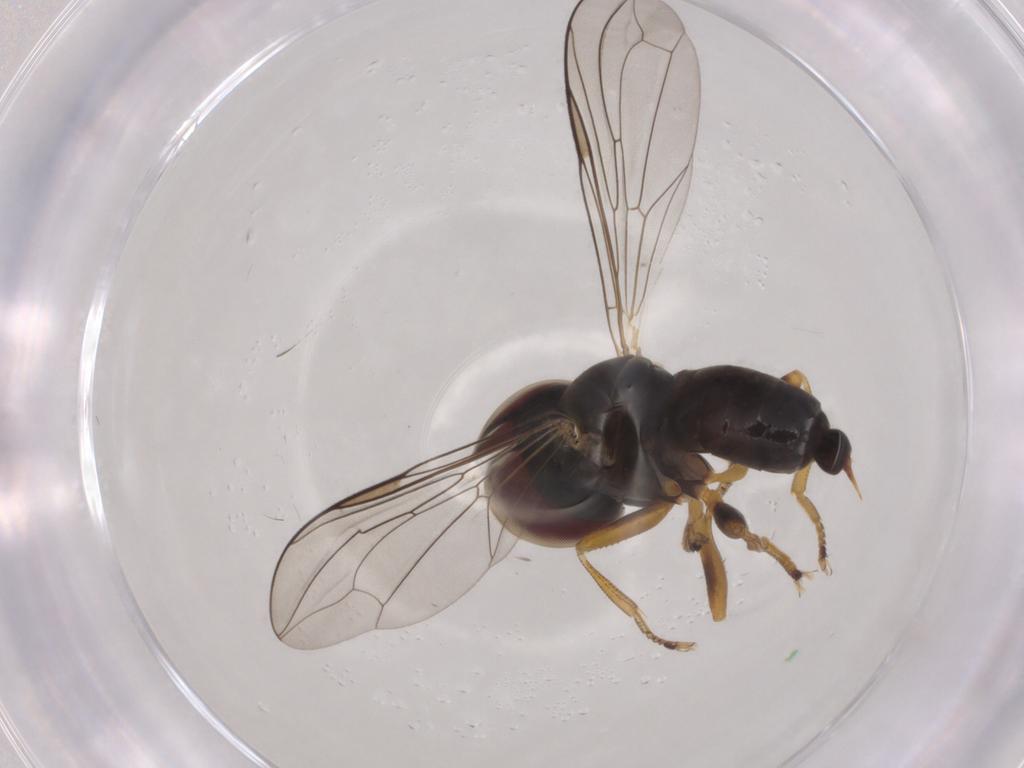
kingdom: Animalia
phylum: Arthropoda
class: Insecta
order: Diptera
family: Pipunculidae
